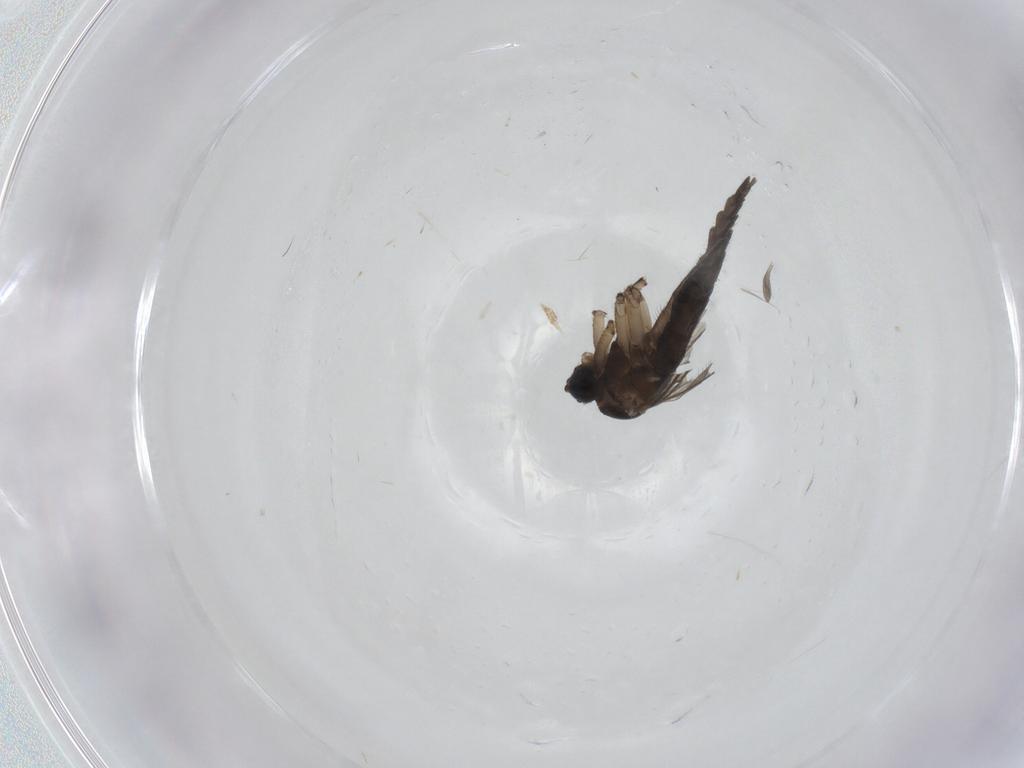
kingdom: Animalia
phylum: Arthropoda
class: Insecta
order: Diptera
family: Sciaridae
